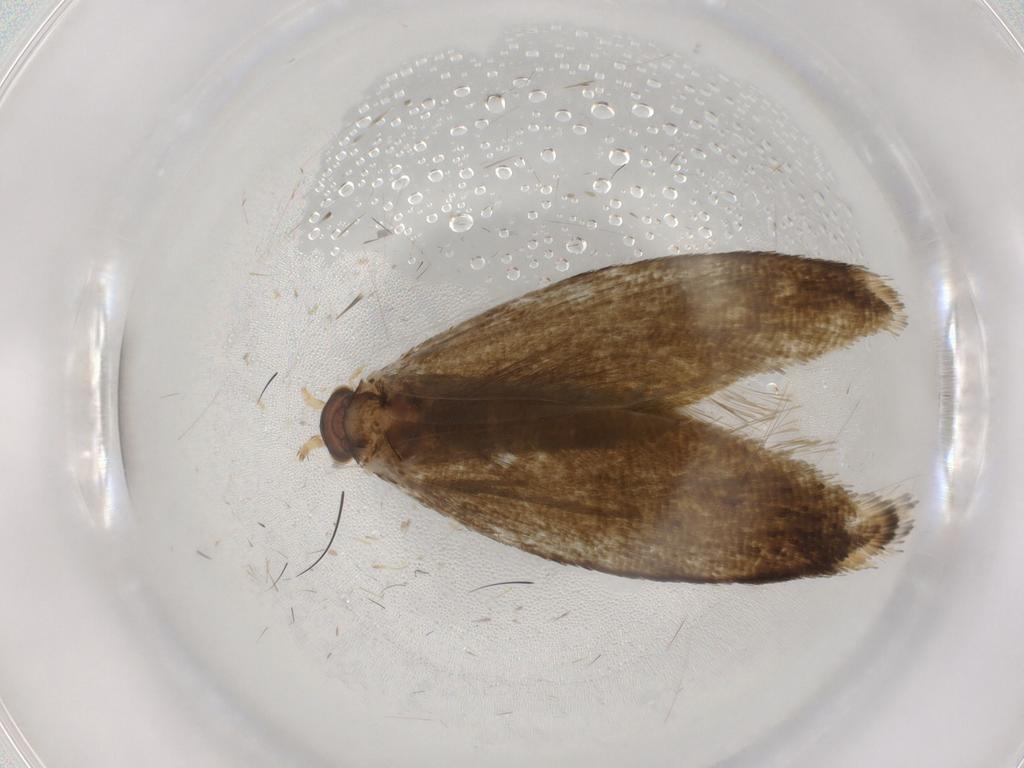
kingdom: Animalia
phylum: Arthropoda
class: Insecta
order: Lepidoptera
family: Tineidae
